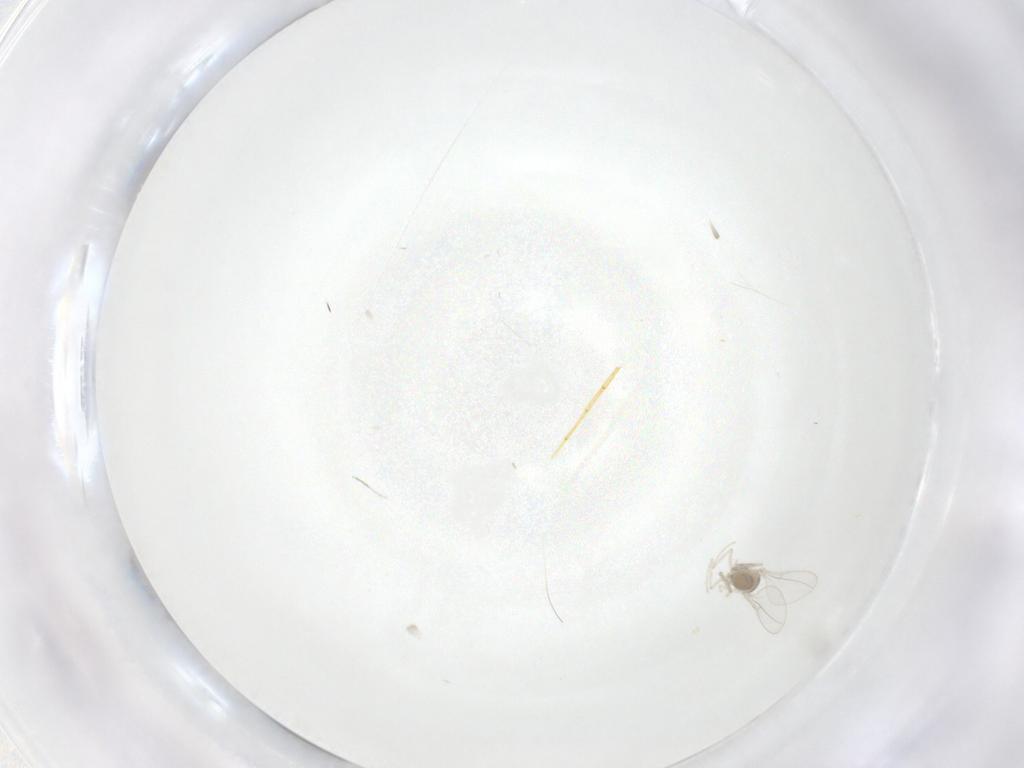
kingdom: Animalia
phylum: Arthropoda
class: Insecta
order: Diptera
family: Cecidomyiidae
